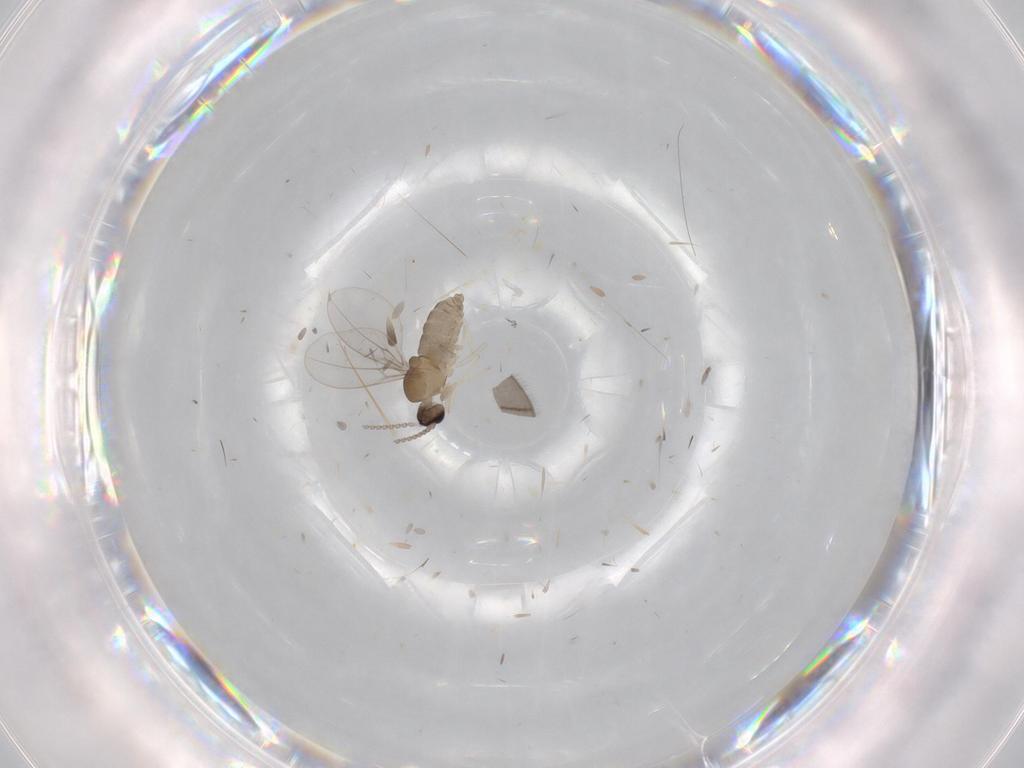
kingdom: Animalia
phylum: Arthropoda
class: Insecta
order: Diptera
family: Cecidomyiidae
